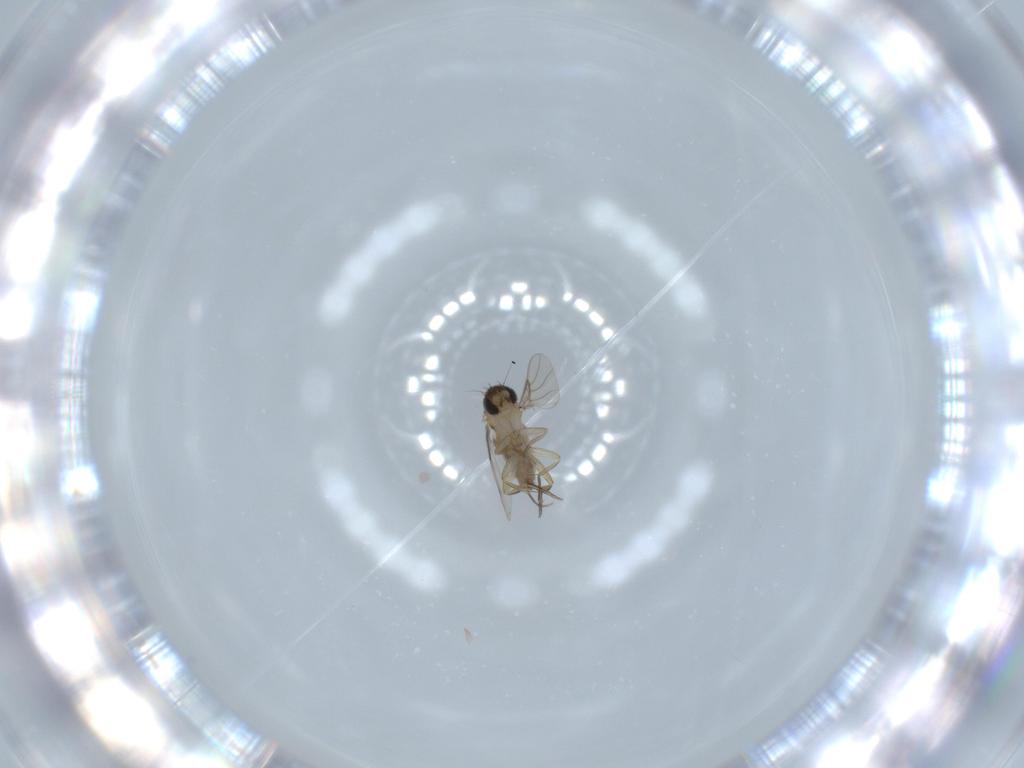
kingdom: Animalia
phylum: Arthropoda
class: Insecta
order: Diptera
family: Phoridae
